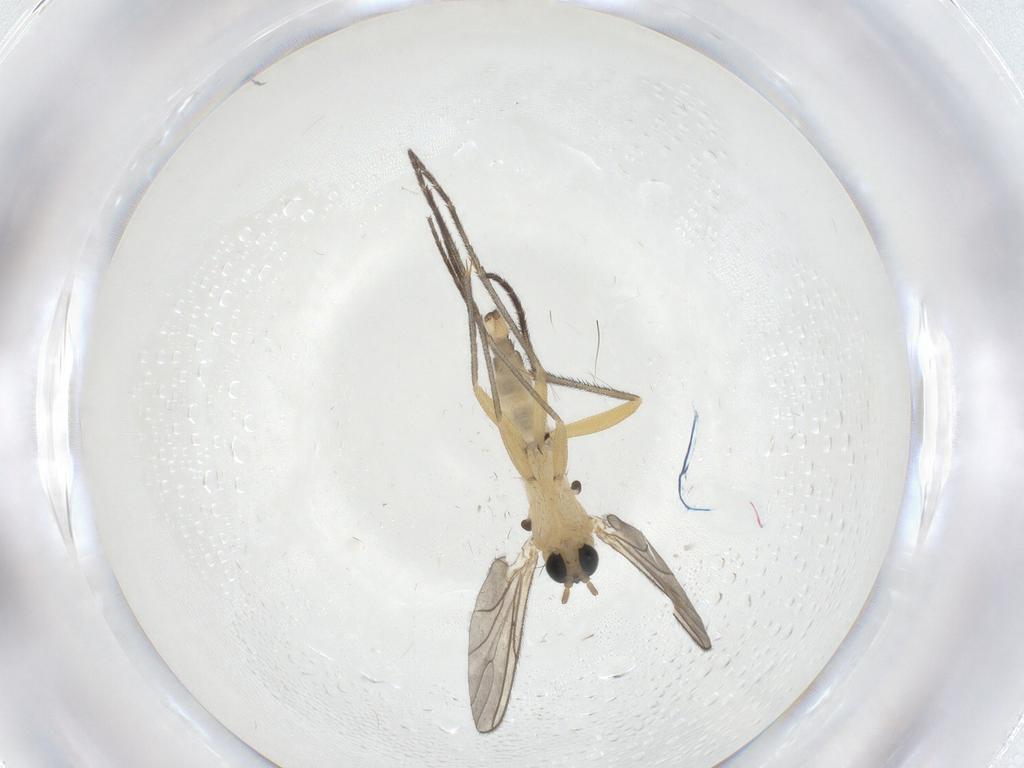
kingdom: Animalia
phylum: Arthropoda
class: Insecta
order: Diptera
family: Sciaridae
